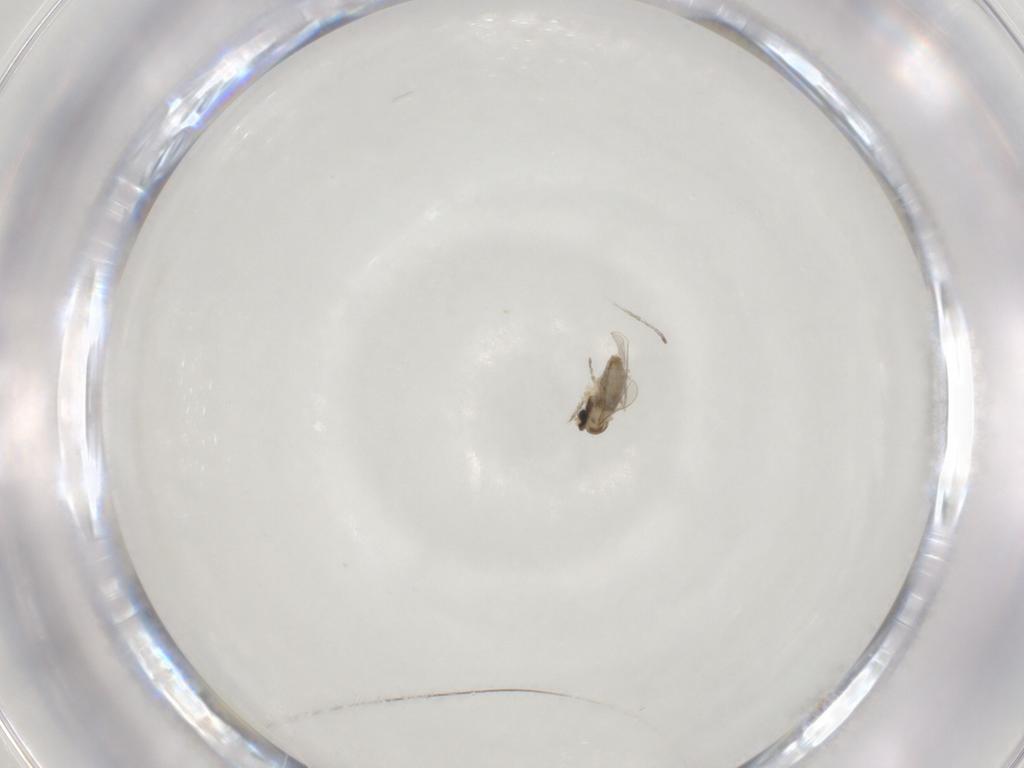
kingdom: Animalia
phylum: Arthropoda
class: Insecta
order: Diptera
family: Cecidomyiidae
